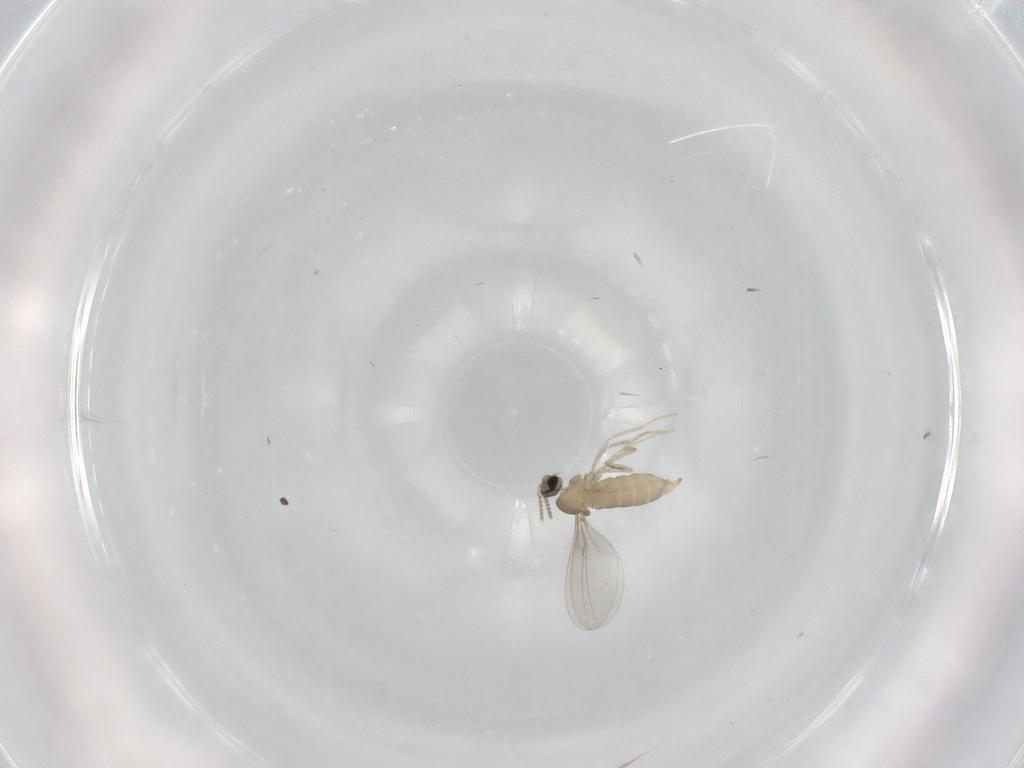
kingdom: Animalia
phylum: Arthropoda
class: Insecta
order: Diptera
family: Cecidomyiidae
